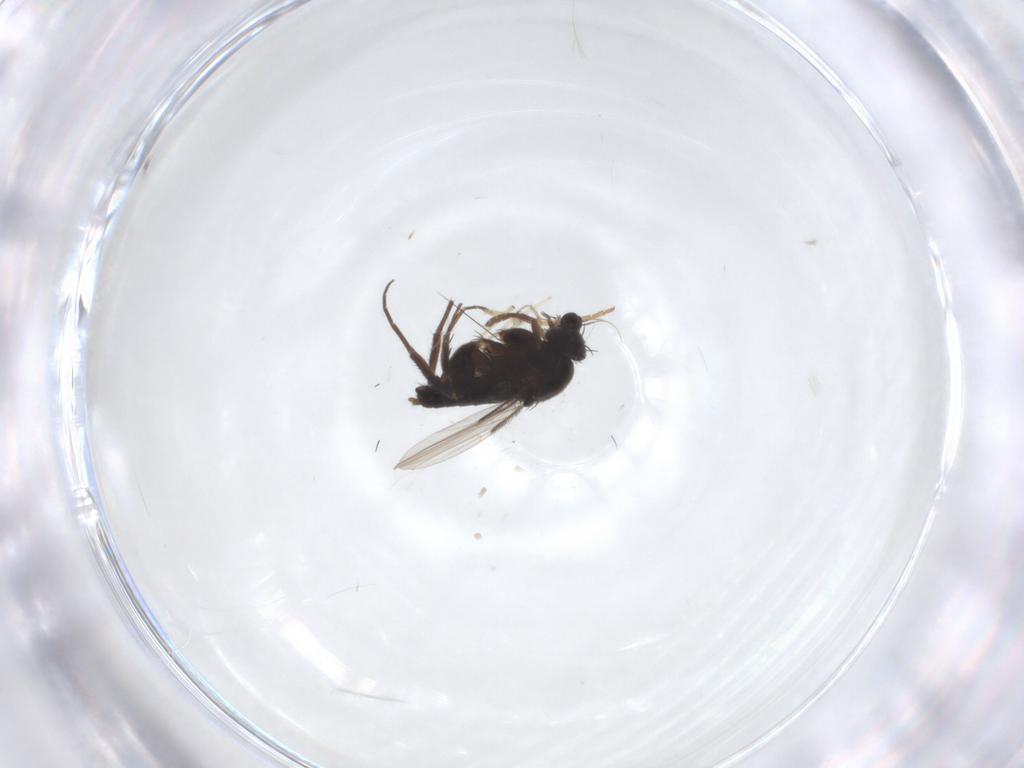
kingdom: Animalia
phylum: Arthropoda
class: Insecta
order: Diptera
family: Phoridae
